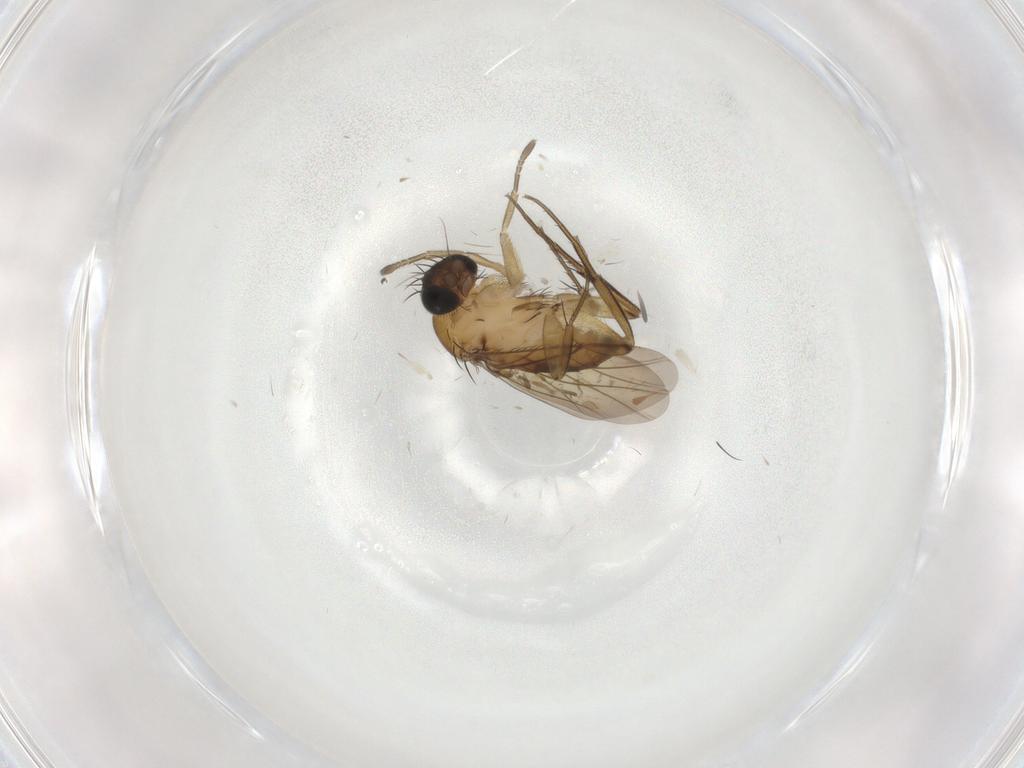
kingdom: Animalia
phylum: Arthropoda
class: Insecta
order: Diptera
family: Phoridae
